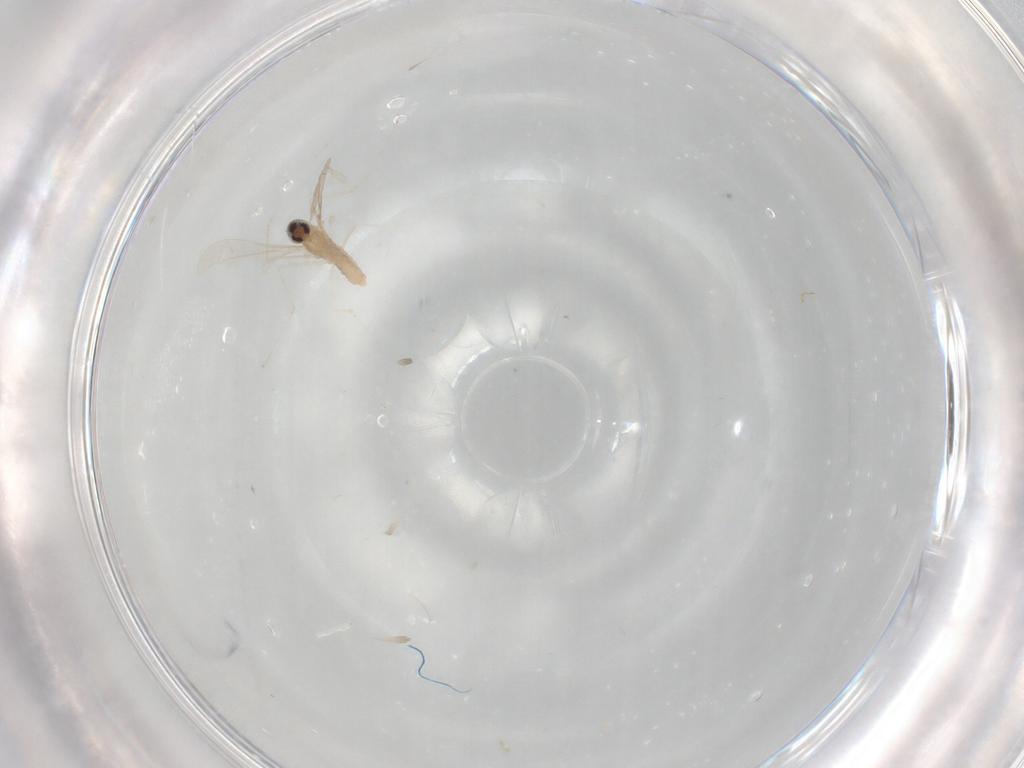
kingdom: Animalia
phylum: Arthropoda
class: Insecta
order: Diptera
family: Cecidomyiidae
